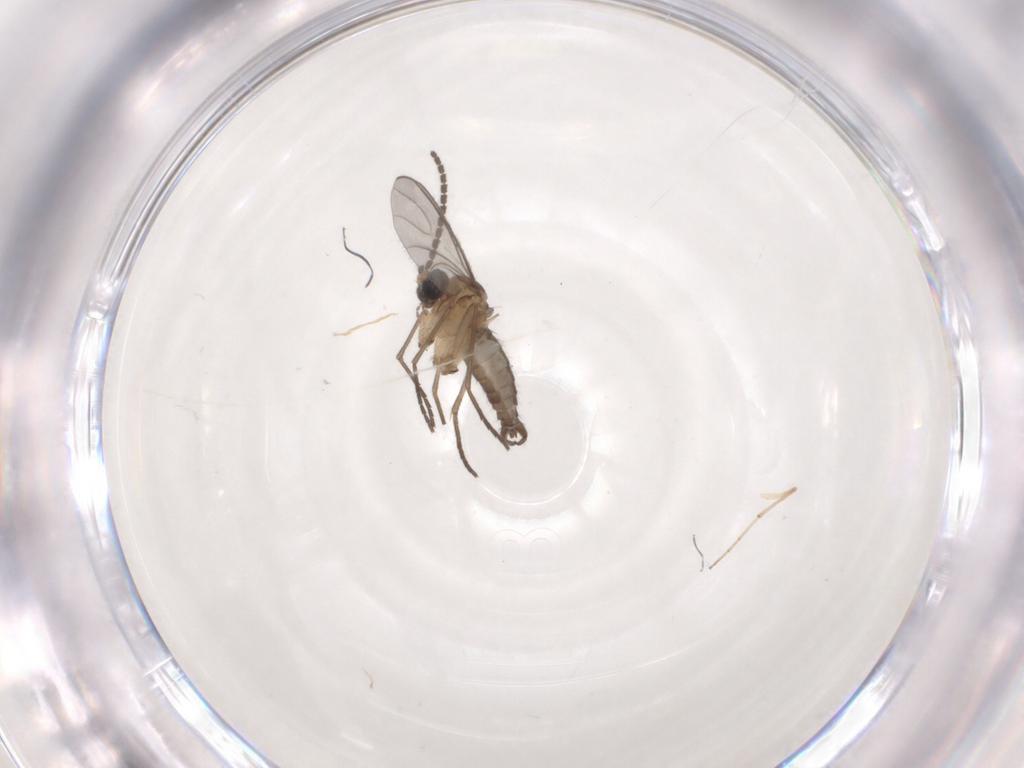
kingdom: Animalia
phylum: Arthropoda
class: Insecta
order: Diptera
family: Sciaridae
